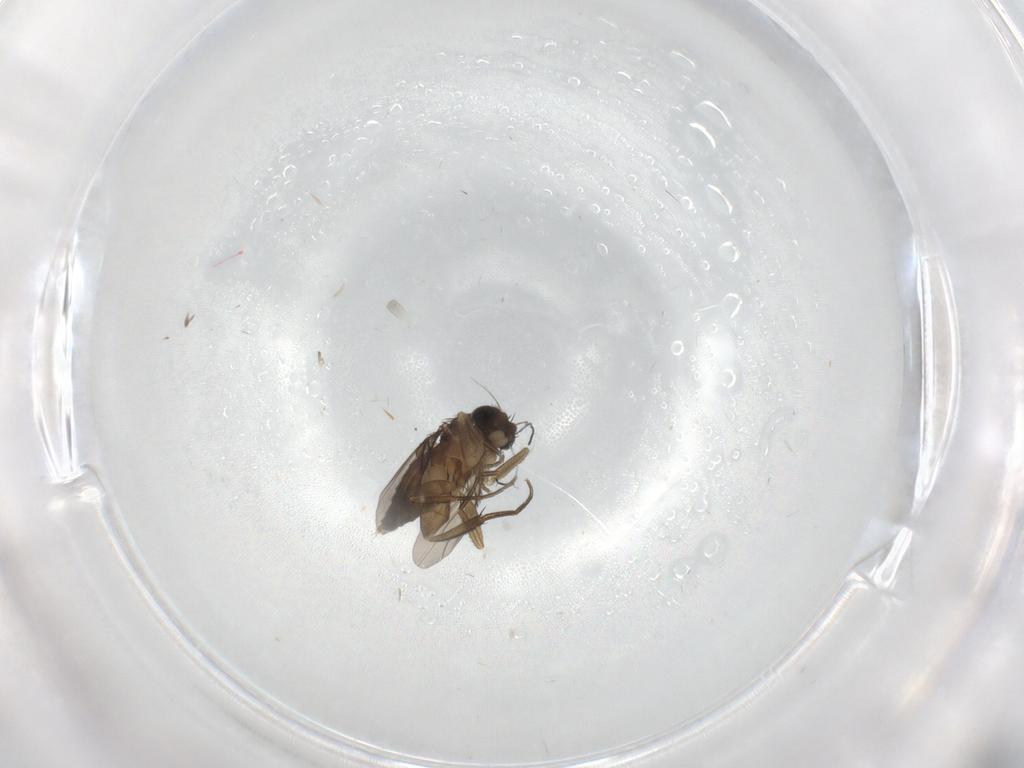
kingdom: Animalia
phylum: Arthropoda
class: Insecta
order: Diptera
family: Phoridae
